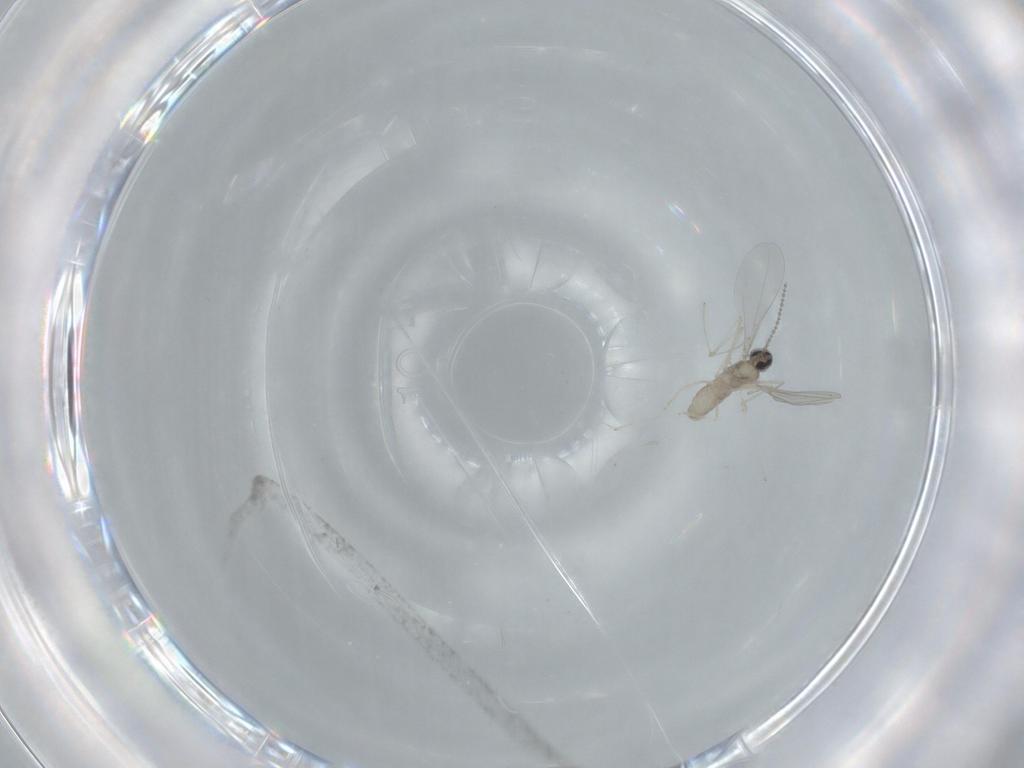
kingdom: Animalia
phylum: Arthropoda
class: Insecta
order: Diptera
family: Cecidomyiidae
